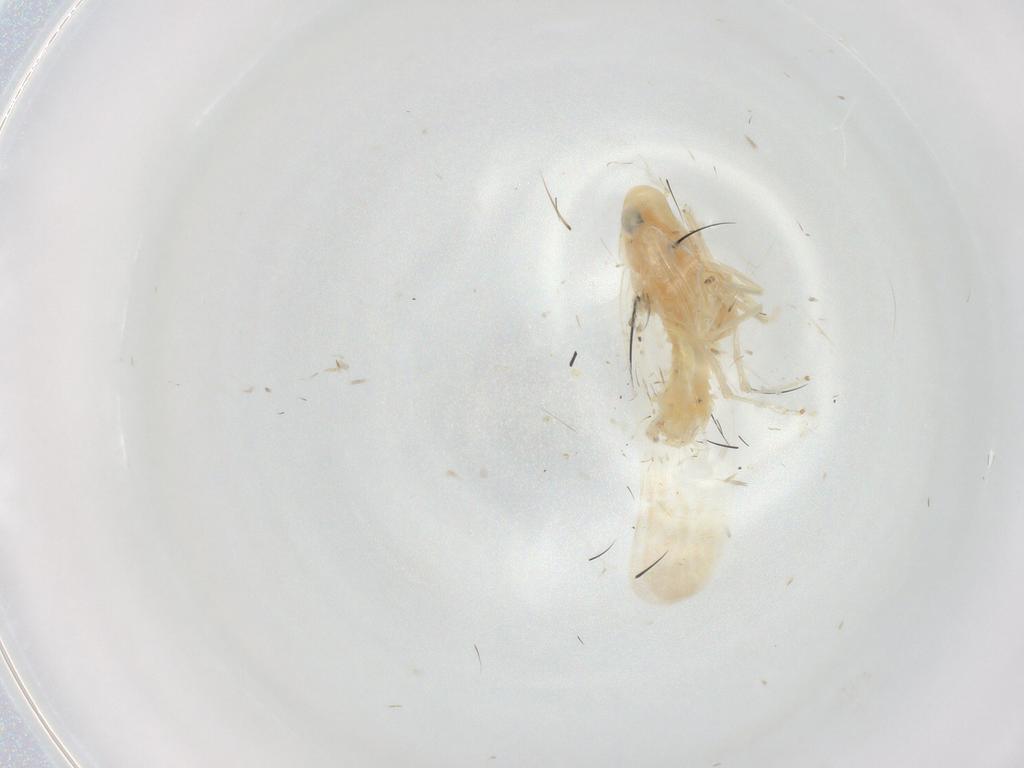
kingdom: Animalia
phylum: Arthropoda
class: Insecta
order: Hemiptera
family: Cicadellidae
